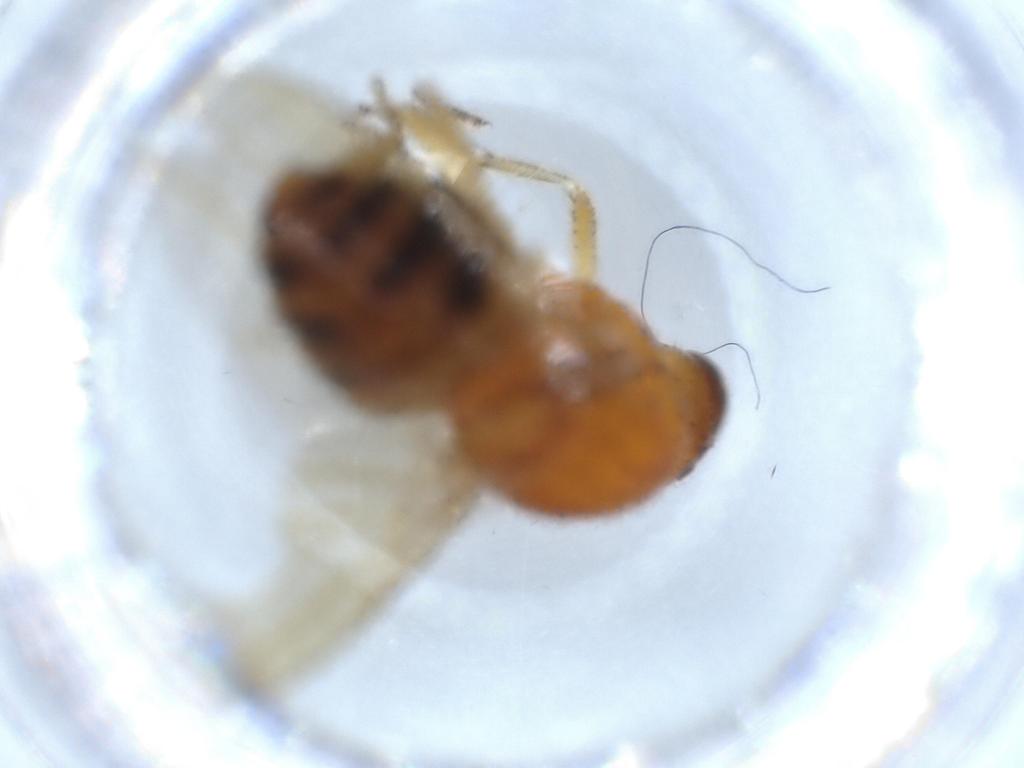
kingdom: Animalia
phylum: Arthropoda
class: Insecta
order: Diptera
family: Lauxaniidae
